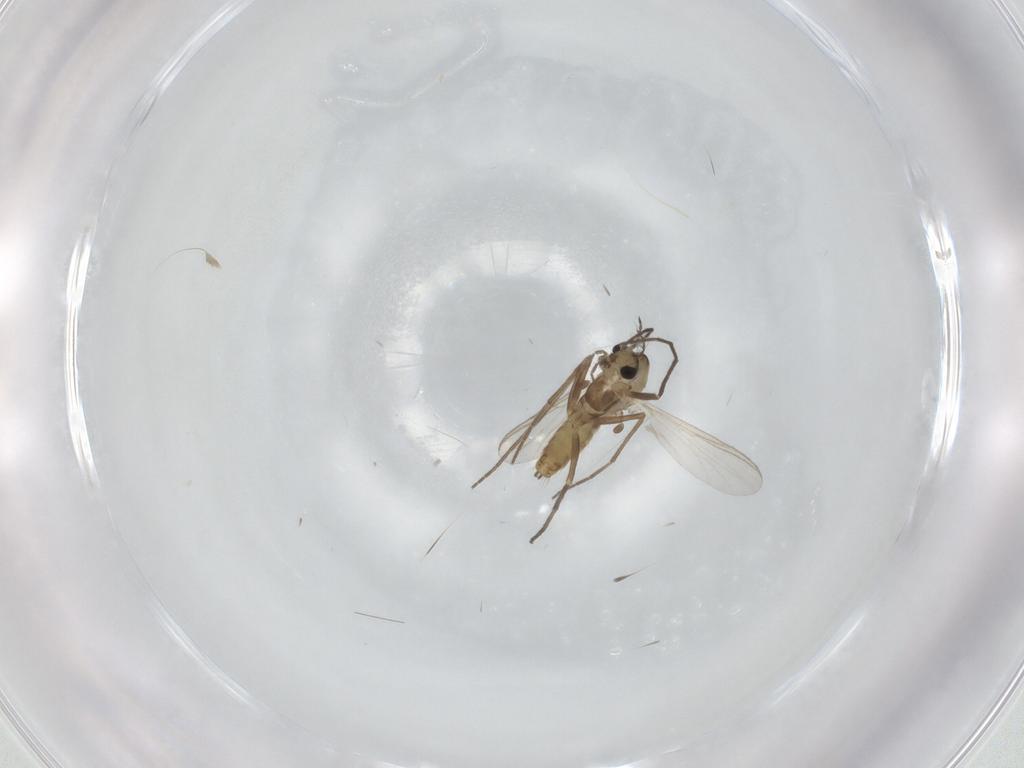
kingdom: Animalia
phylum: Arthropoda
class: Insecta
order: Diptera
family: Chironomidae
